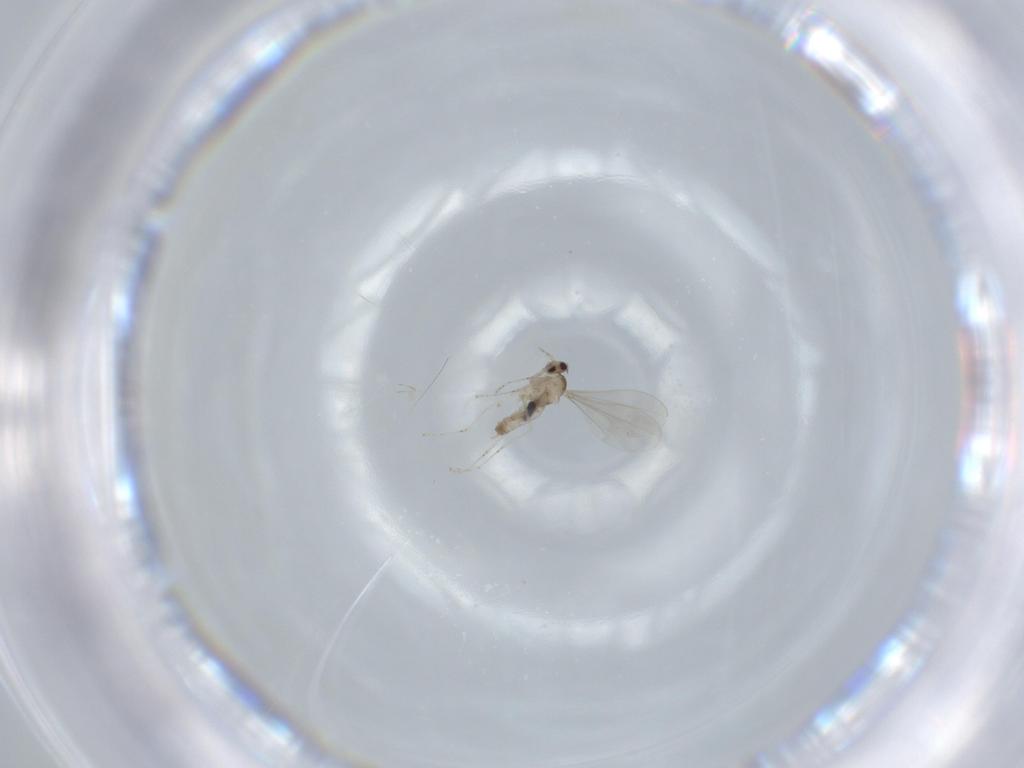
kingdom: Animalia
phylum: Arthropoda
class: Insecta
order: Diptera
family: Cecidomyiidae
